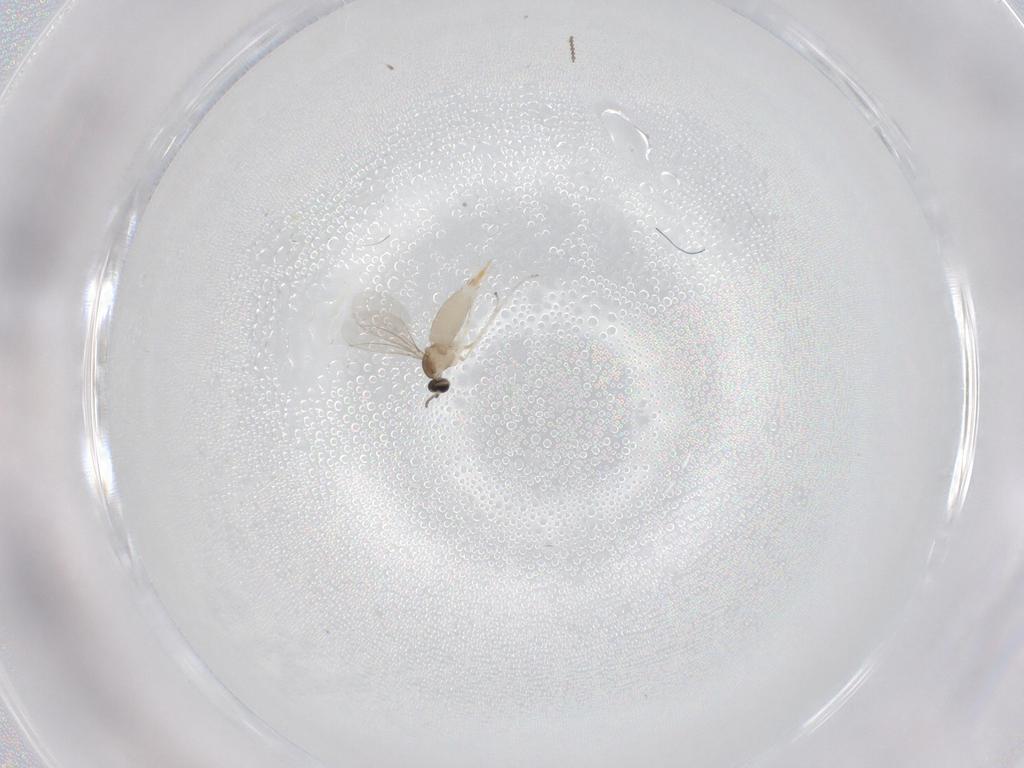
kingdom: Animalia
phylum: Arthropoda
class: Insecta
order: Diptera
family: Cecidomyiidae
